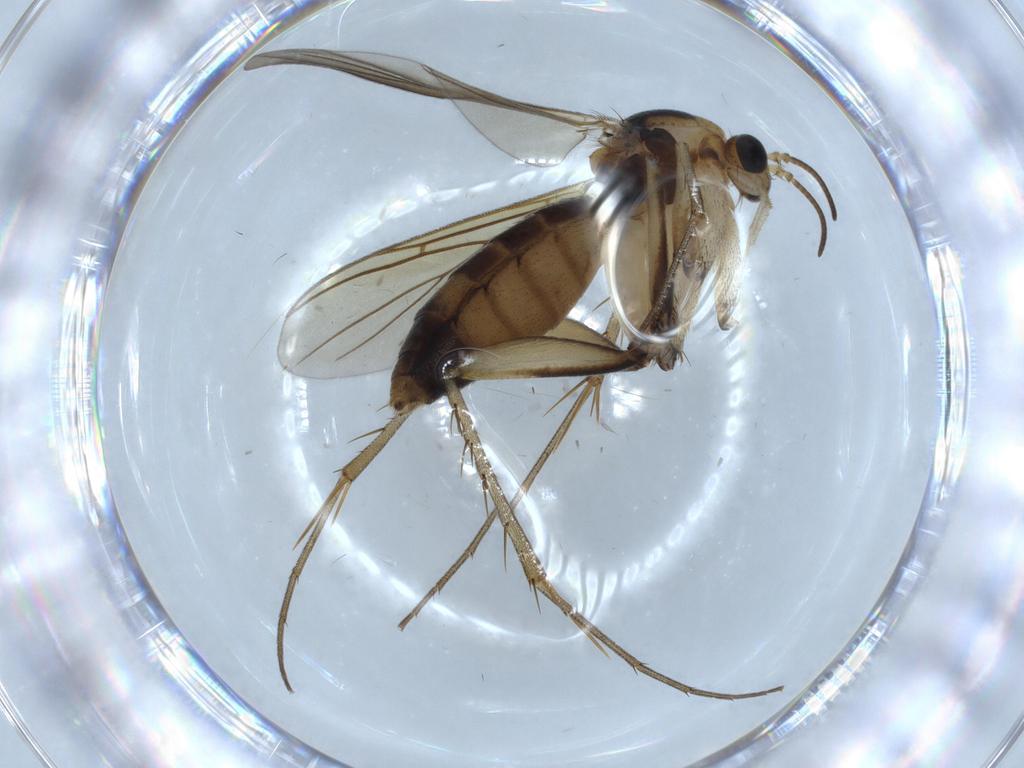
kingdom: Animalia
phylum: Arthropoda
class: Insecta
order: Diptera
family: Mycetophilidae
